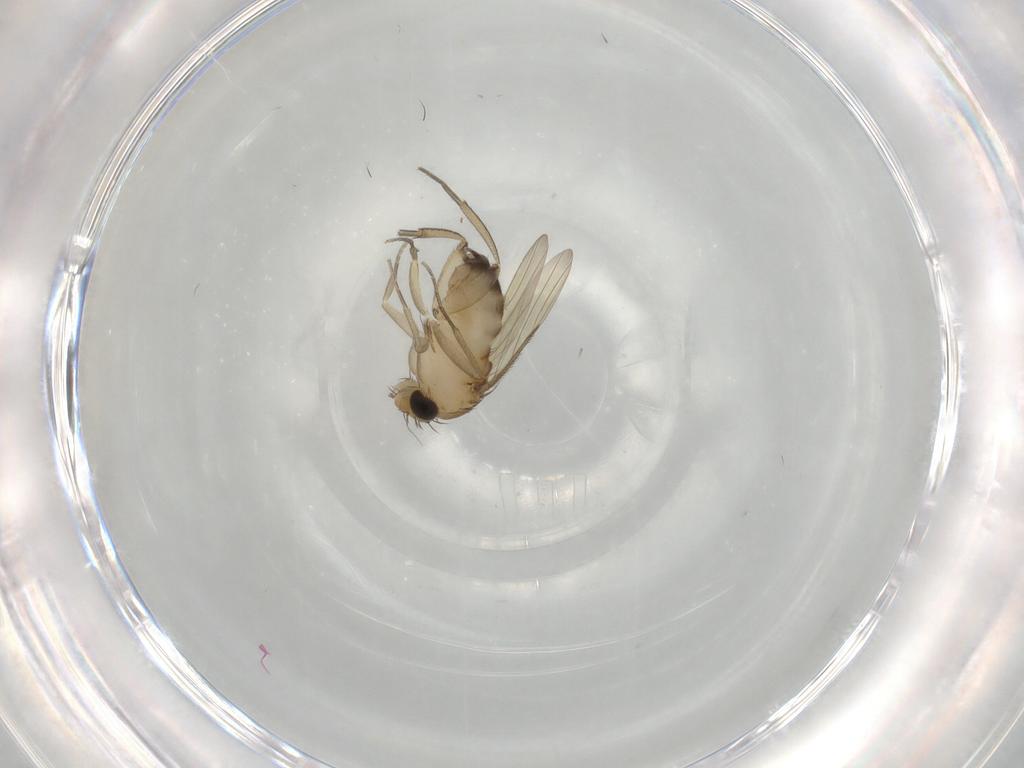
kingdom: Animalia
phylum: Arthropoda
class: Insecta
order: Diptera
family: Phoridae
